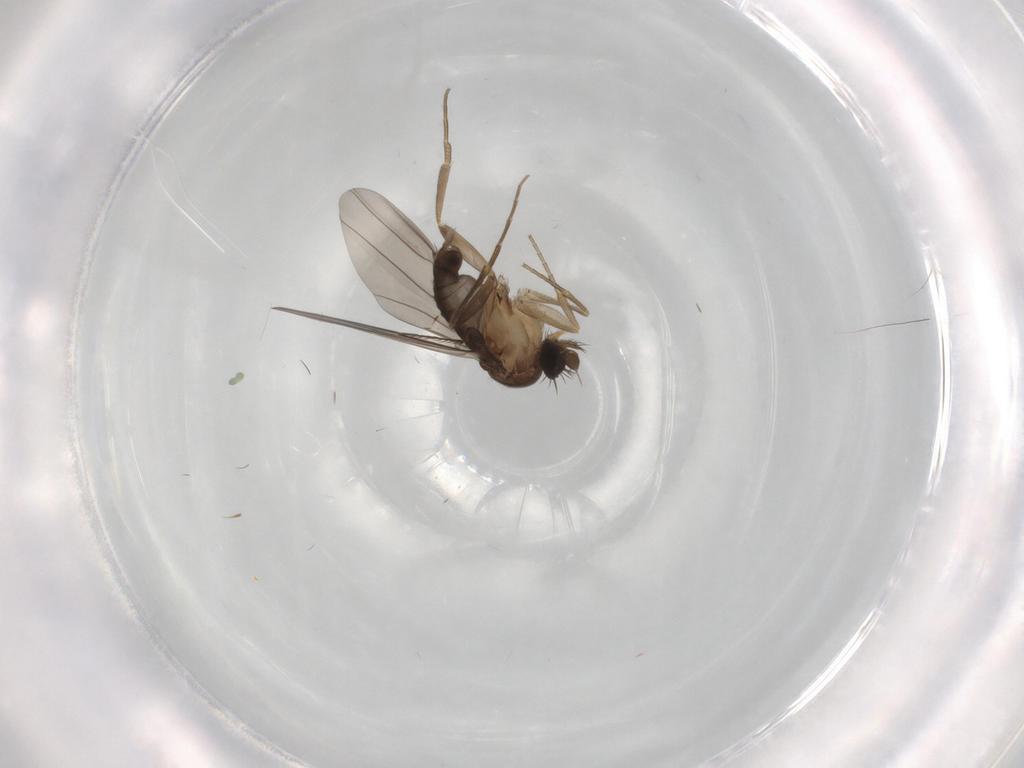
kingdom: Animalia
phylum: Arthropoda
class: Insecta
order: Diptera
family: Phoridae
